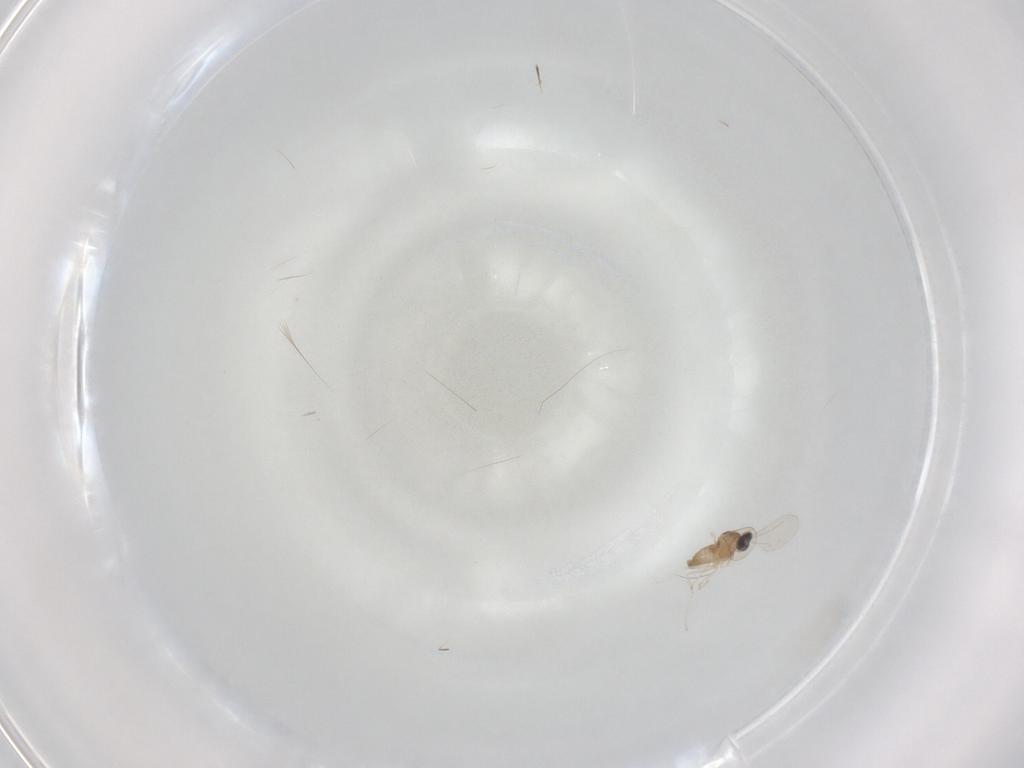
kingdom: Animalia
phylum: Arthropoda
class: Insecta
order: Diptera
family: Cecidomyiidae
